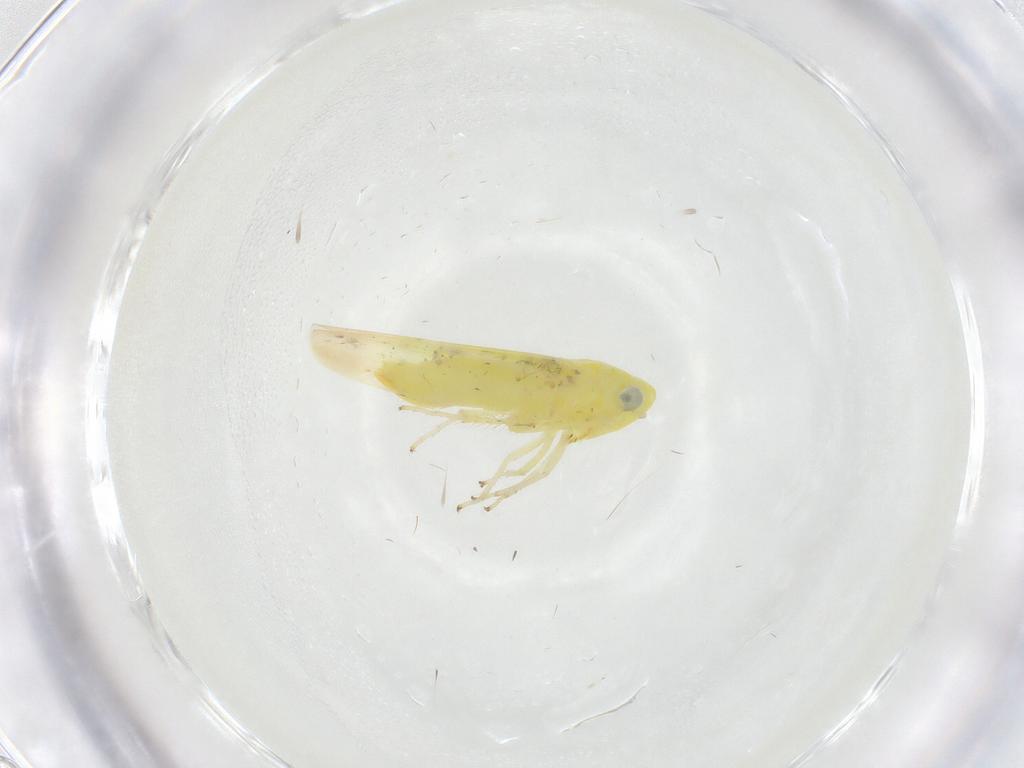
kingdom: Animalia
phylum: Arthropoda
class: Insecta
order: Hemiptera
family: Cicadellidae
